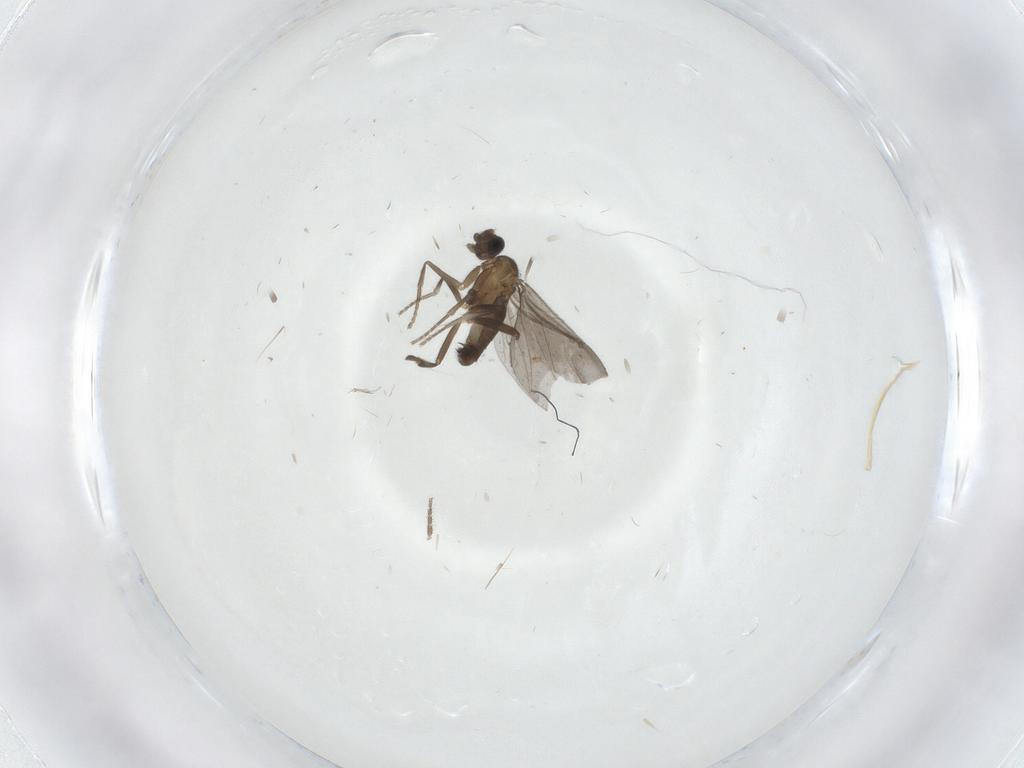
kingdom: Animalia
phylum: Arthropoda
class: Insecta
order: Diptera
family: Phoridae
